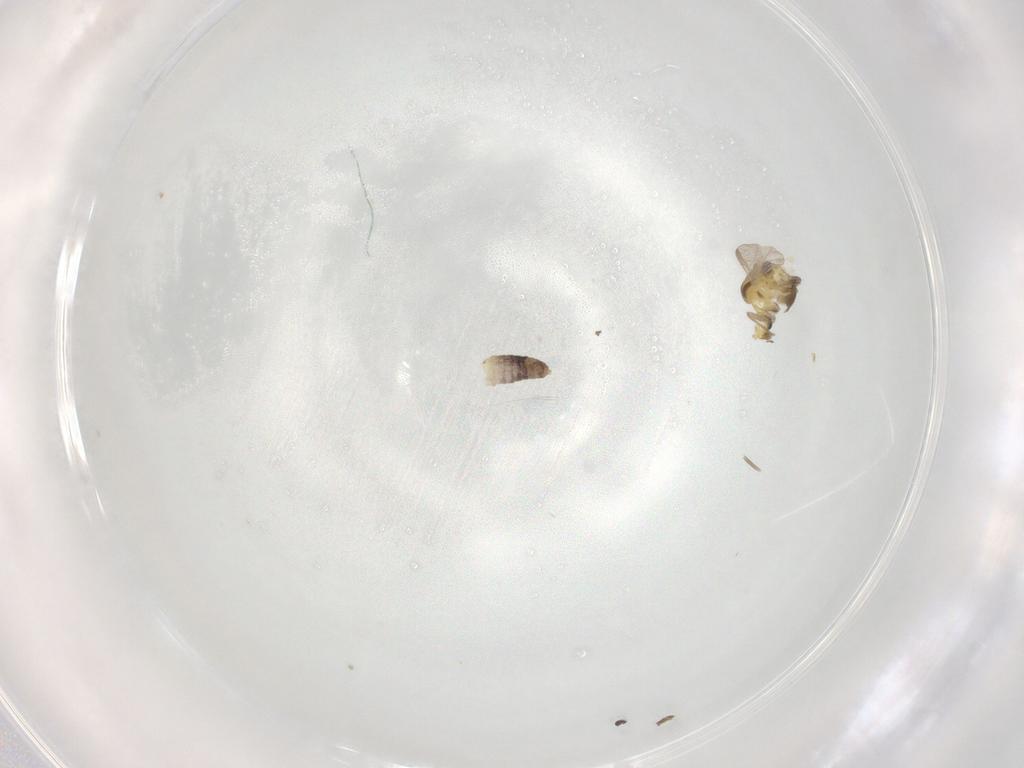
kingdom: Animalia
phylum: Arthropoda
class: Insecta
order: Diptera
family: Chironomidae
